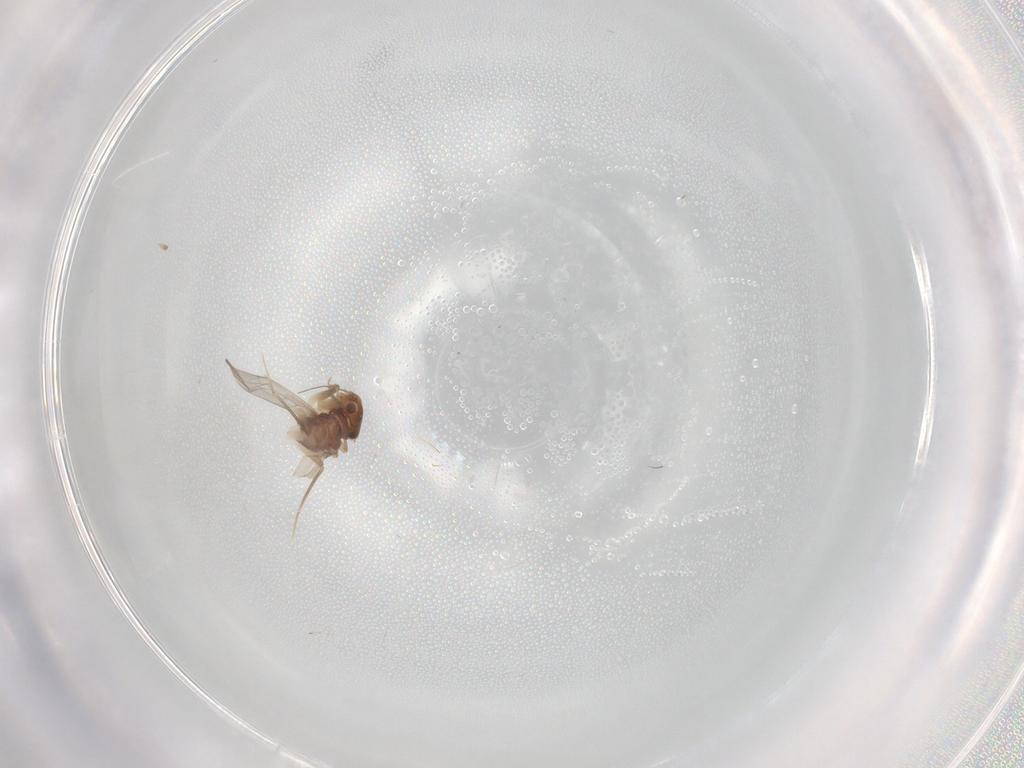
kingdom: Animalia
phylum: Arthropoda
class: Insecta
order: Psocodea
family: Lepidopsocidae
